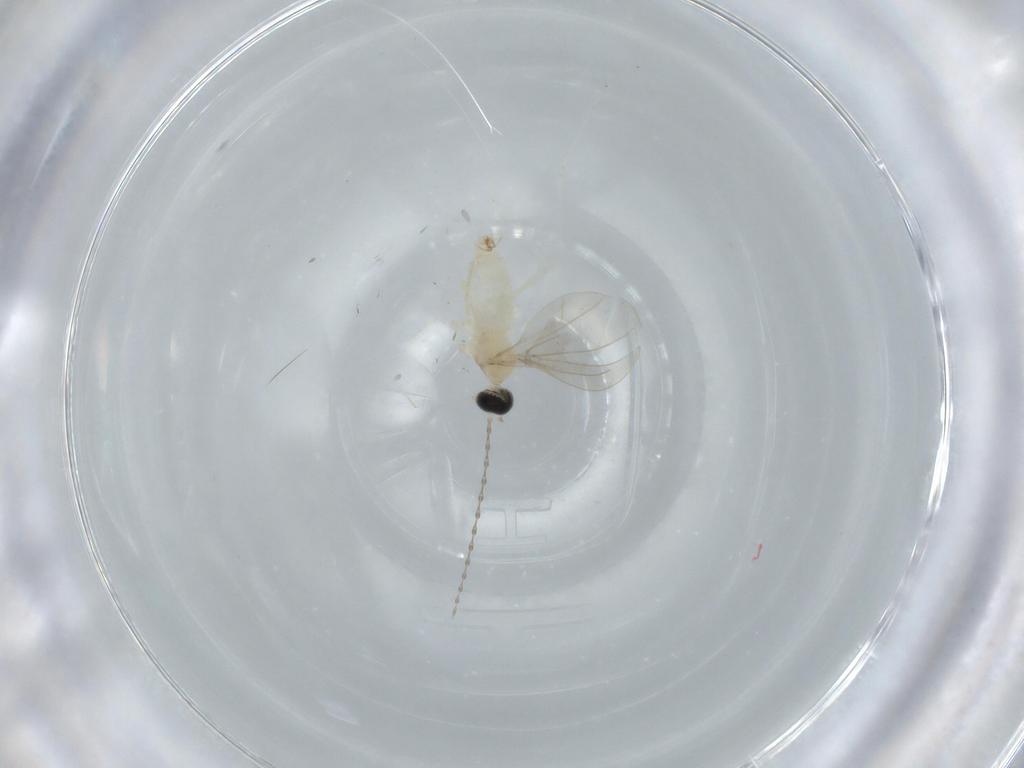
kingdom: Animalia
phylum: Arthropoda
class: Insecta
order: Diptera
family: Cecidomyiidae
